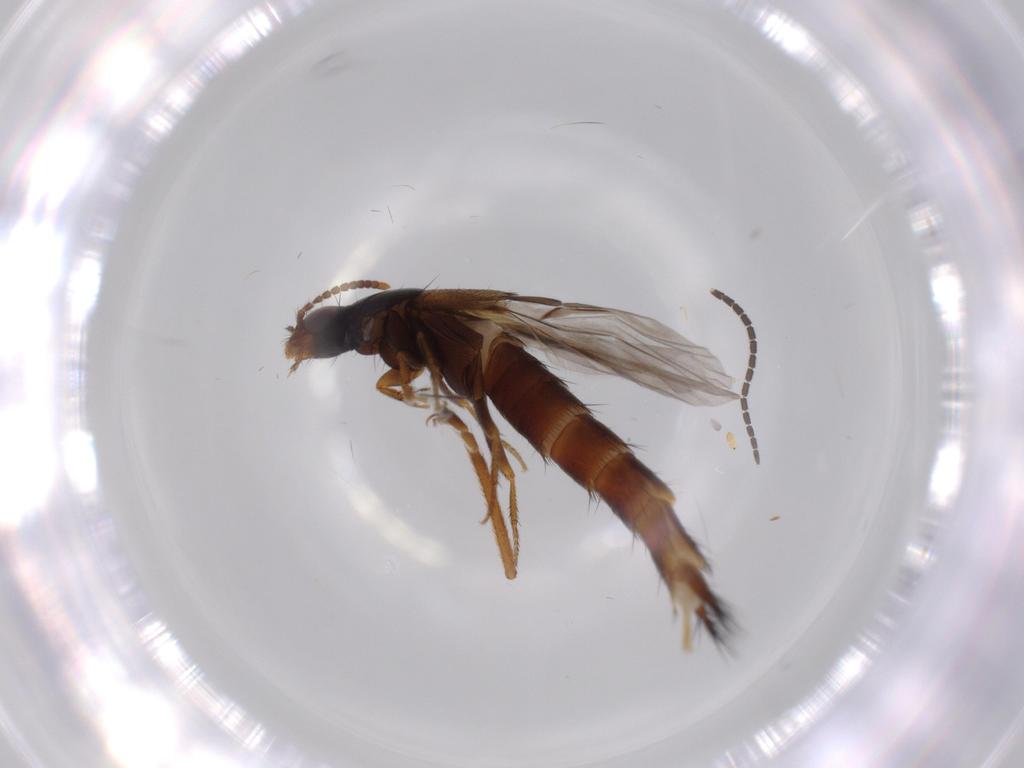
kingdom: Animalia
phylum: Arthropoda
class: Insecta
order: Coleoptera
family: Staphylinidae
